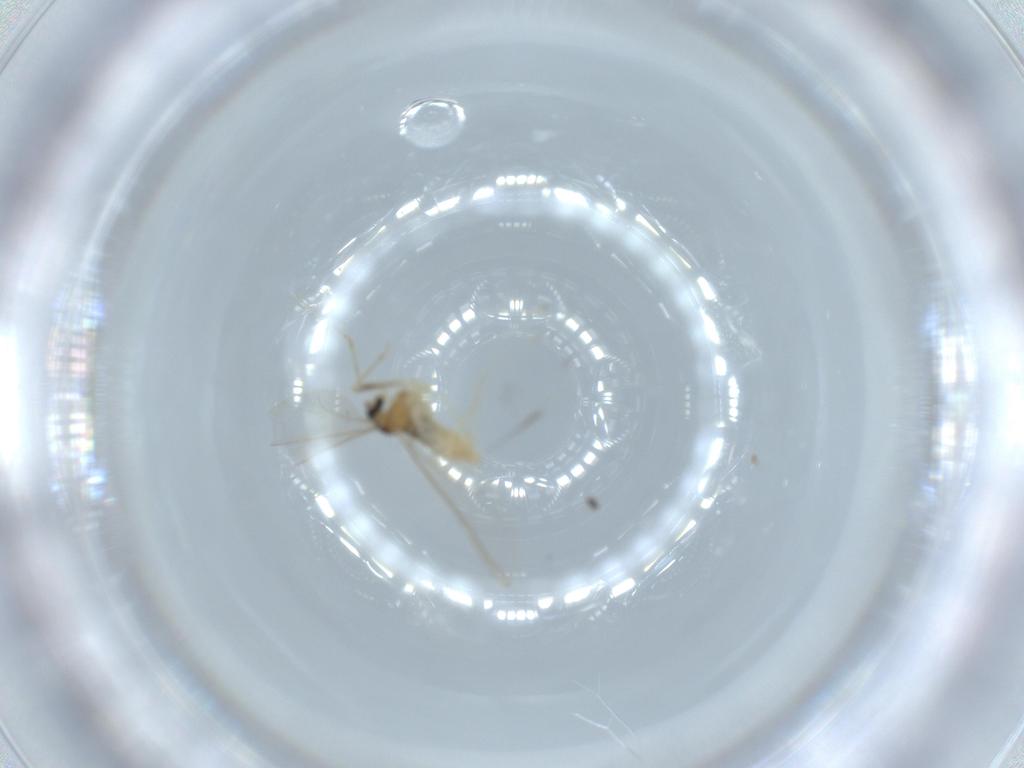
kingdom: Animalia
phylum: Arthropoda
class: Insecta
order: Diptera
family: Cecidomyiidae
